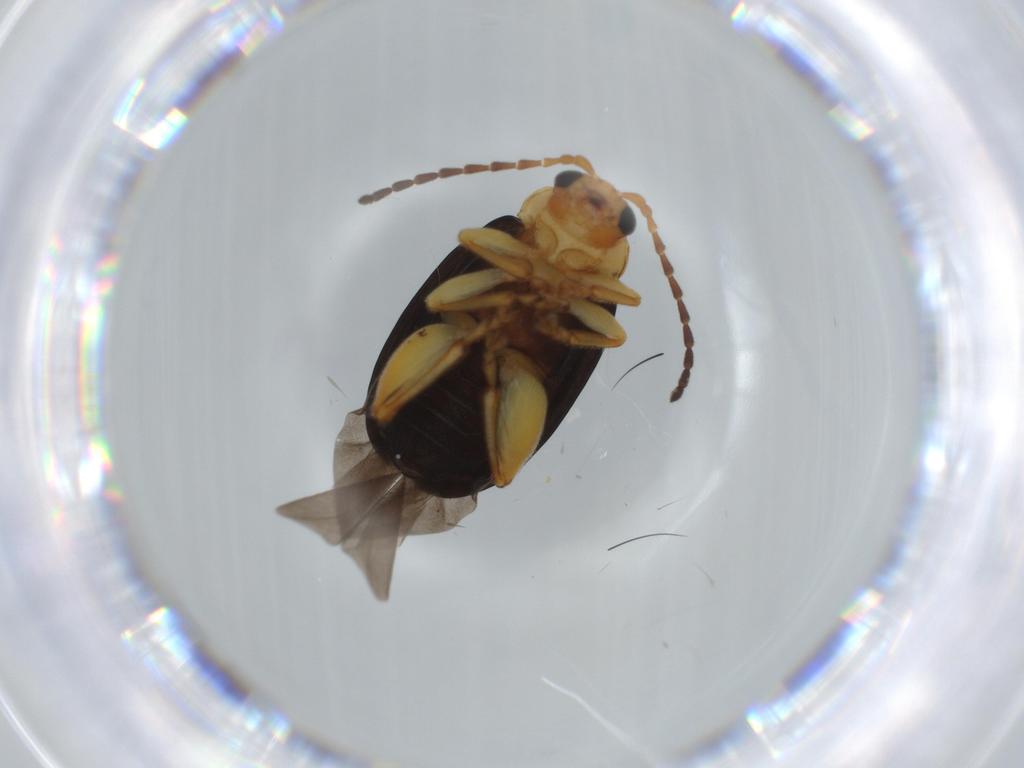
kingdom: Animalia
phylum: Arthropoda
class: Insecta
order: Coleoptera
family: Chrysomelidae
